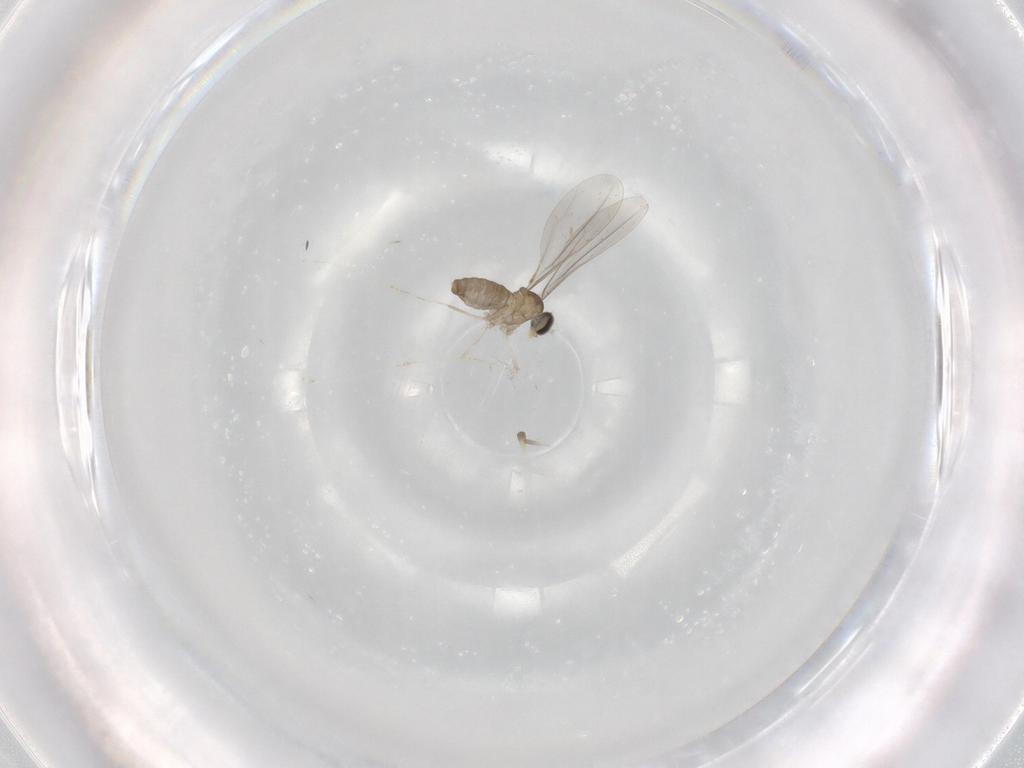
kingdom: Animalia
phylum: Arthropoda
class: Insecta
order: Diptera
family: Cecidomyiidae
